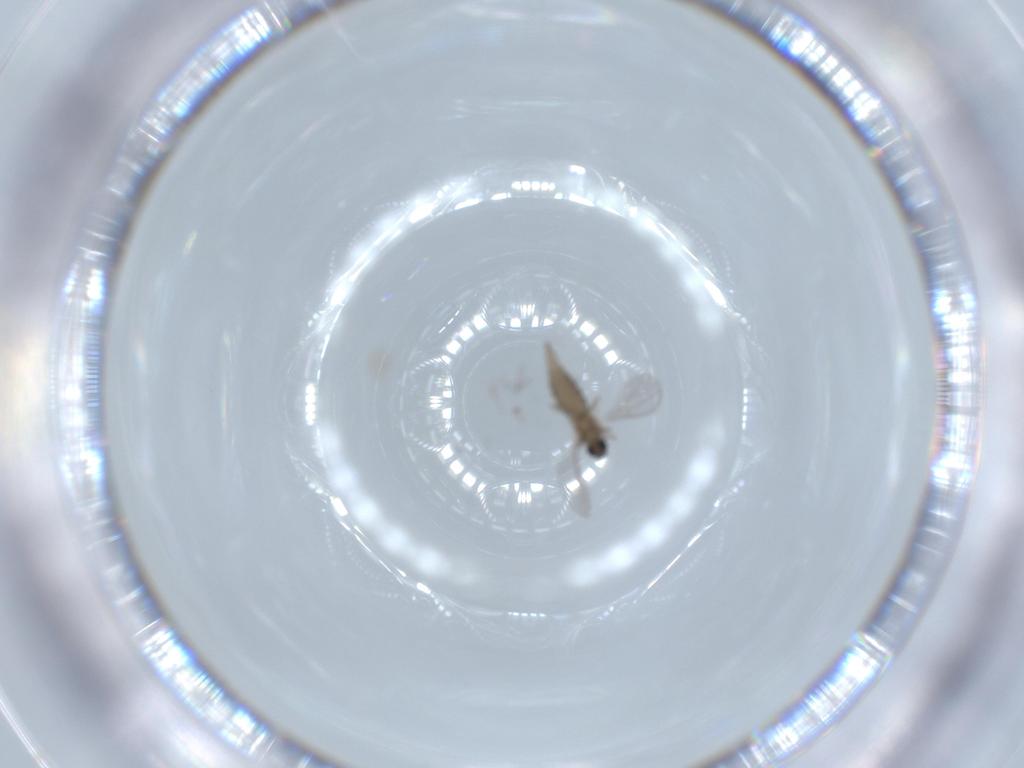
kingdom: Animalia
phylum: Arthropoda
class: Insecta
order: Diptera
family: Cecidomyiidae
